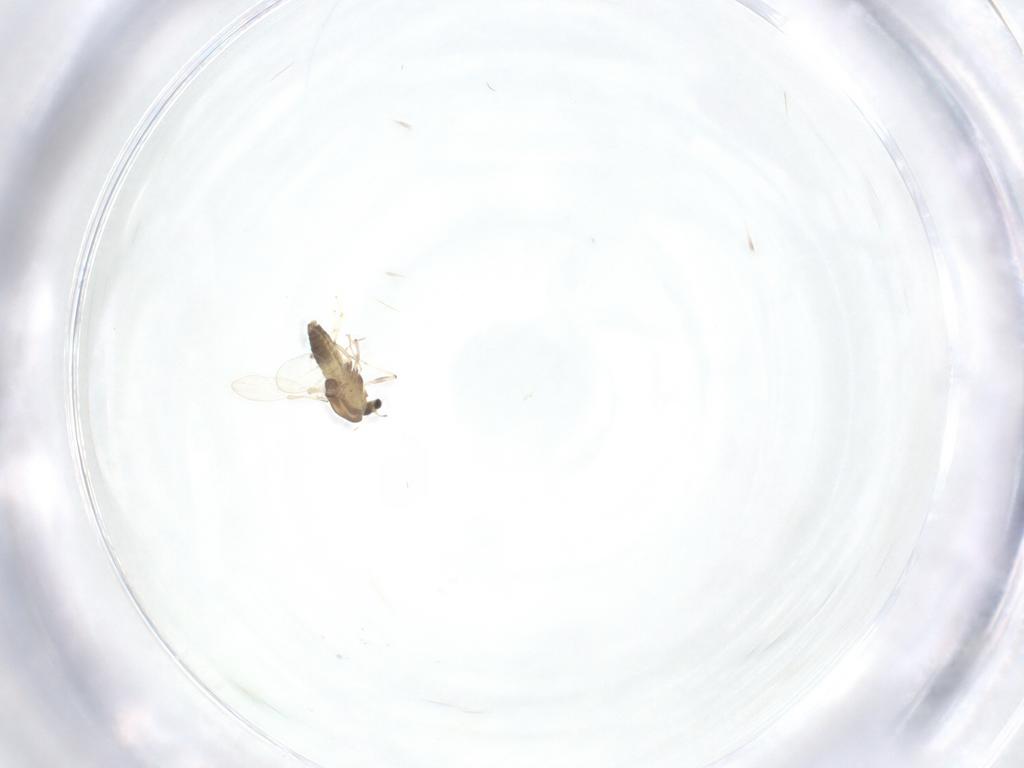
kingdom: Animalia
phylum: Arthropoda
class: Insecta
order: Diptera
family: Chironomidae
